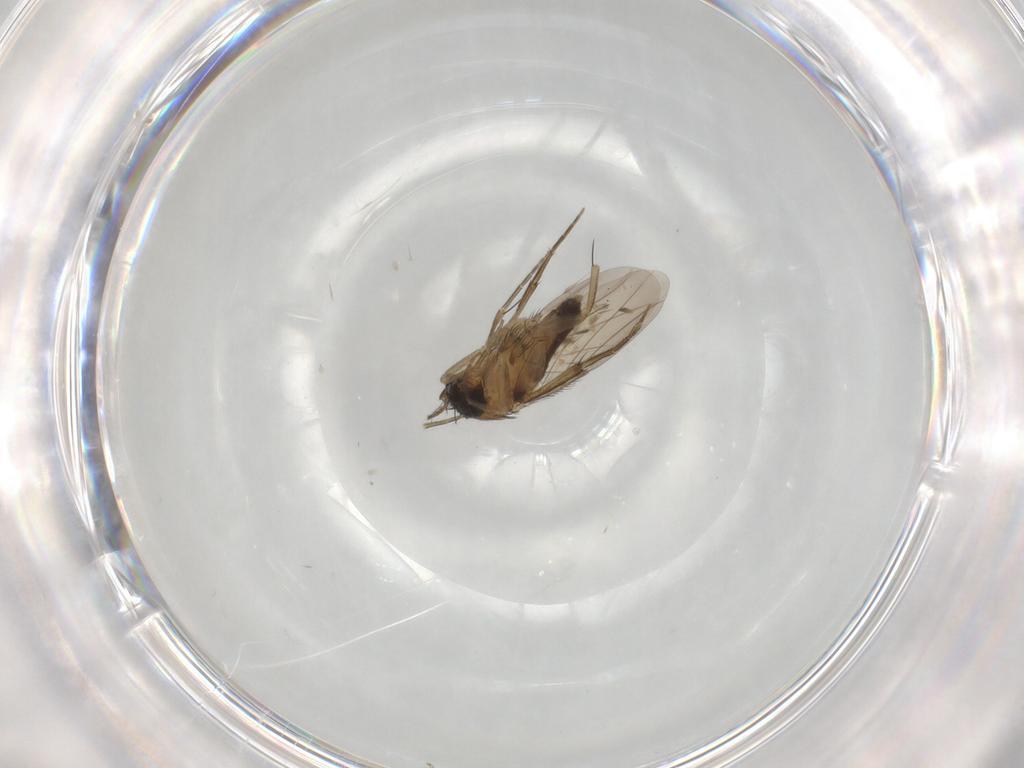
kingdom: Animalia
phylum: Arthropoda
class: Insecta
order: Diptera
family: Phoridae
